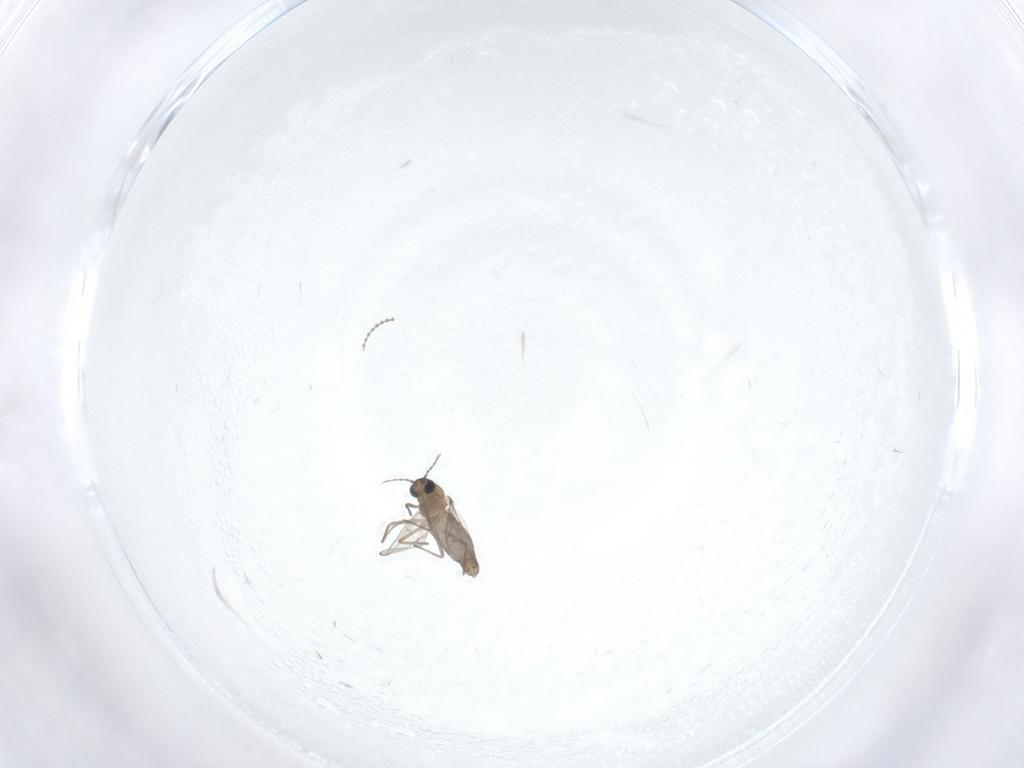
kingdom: Animalia
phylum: Arthropoda
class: Insecta
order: Diptera
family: Cecidomyiidae
